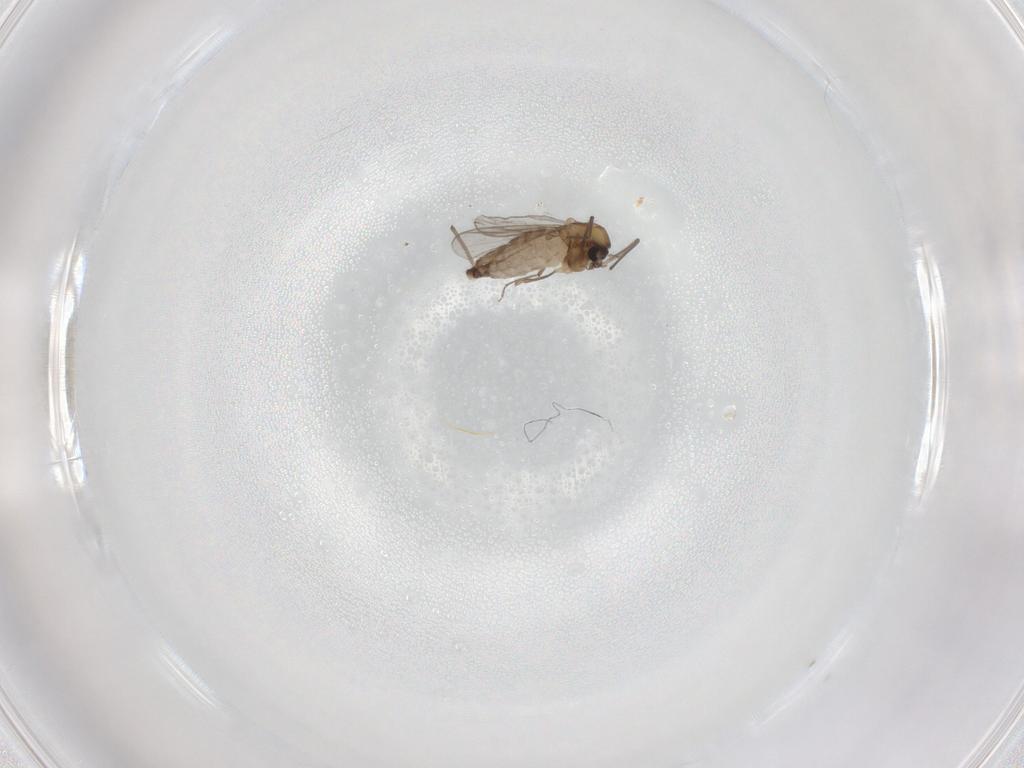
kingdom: Animalia
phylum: Arthropoda
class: Insecta
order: Diptera
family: Chironomidae
